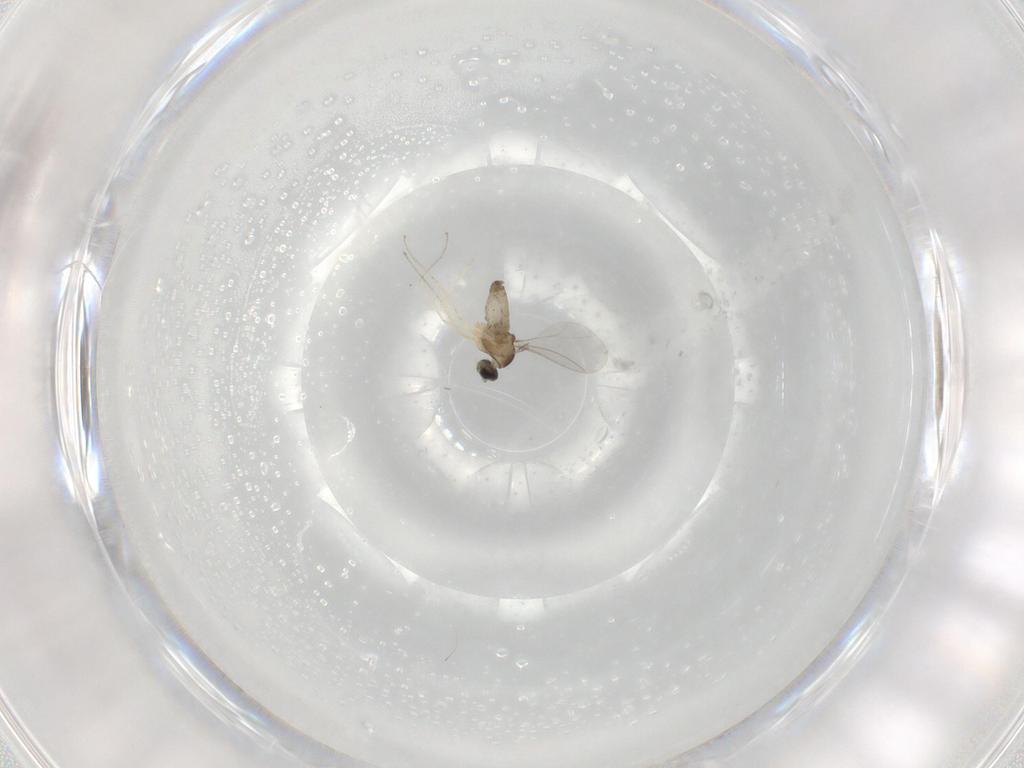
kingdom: Animalia
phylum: Arthropoda
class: Insecta
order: Diptera
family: Cecidomyiidae
